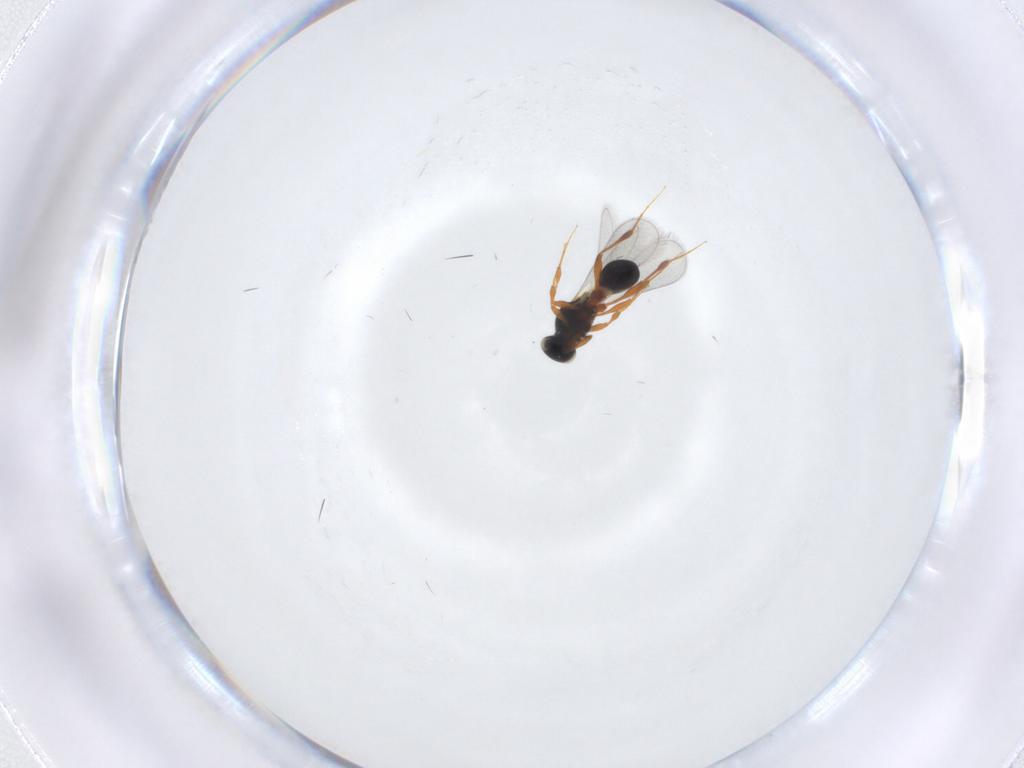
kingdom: Animalia
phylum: Arthropoda
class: Insecta
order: Hymenoptera
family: Platygastridae
